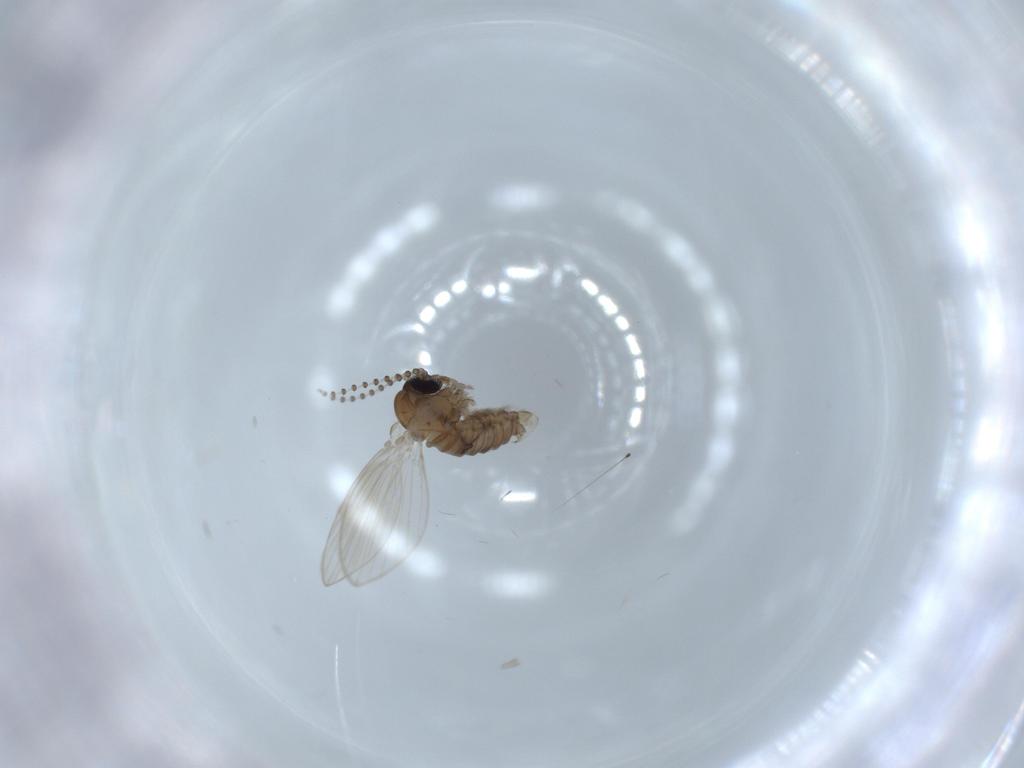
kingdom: Animalia
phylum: Arthropoda
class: Insecta
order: Diptera
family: Psychodidae
